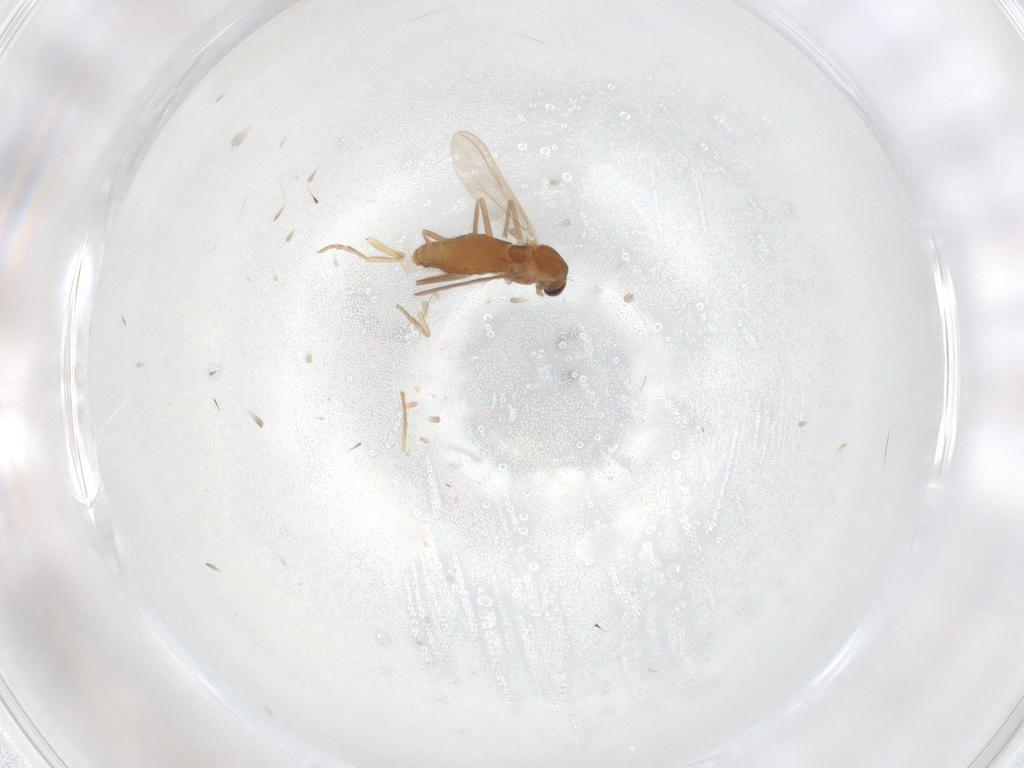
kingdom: Animalia
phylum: Arthropoda
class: Insecta
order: Diptera
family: Chironomidae
